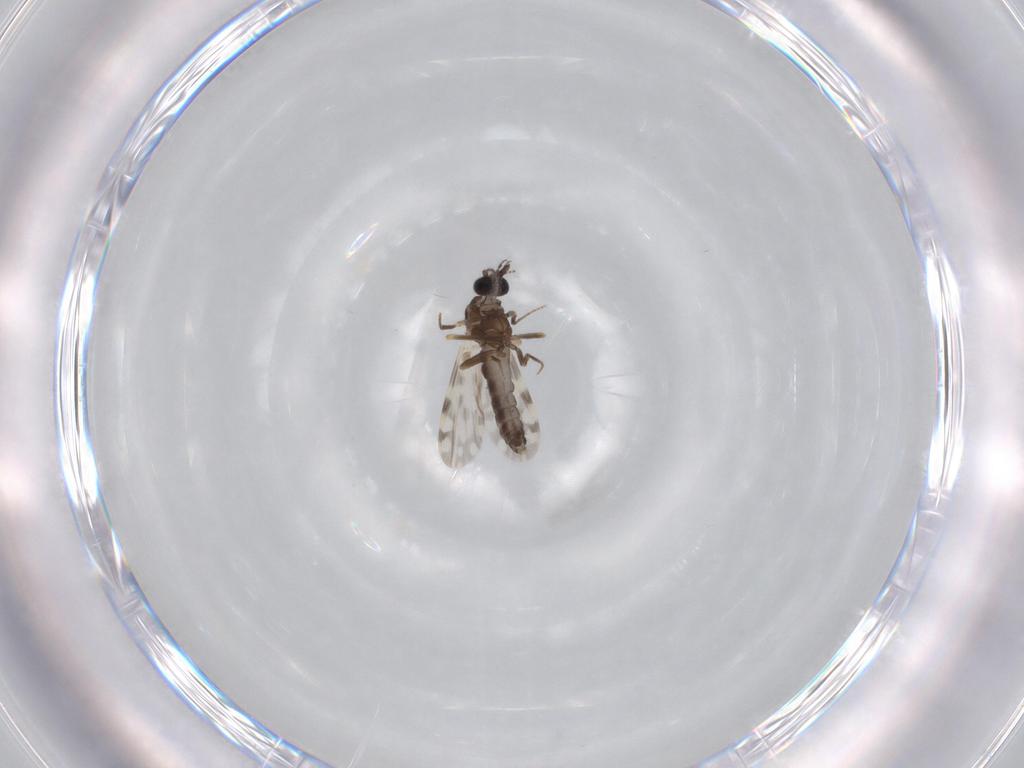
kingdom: Animalia
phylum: Arthropoda
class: Insecta
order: Diptera
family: Ceratopogonidae
